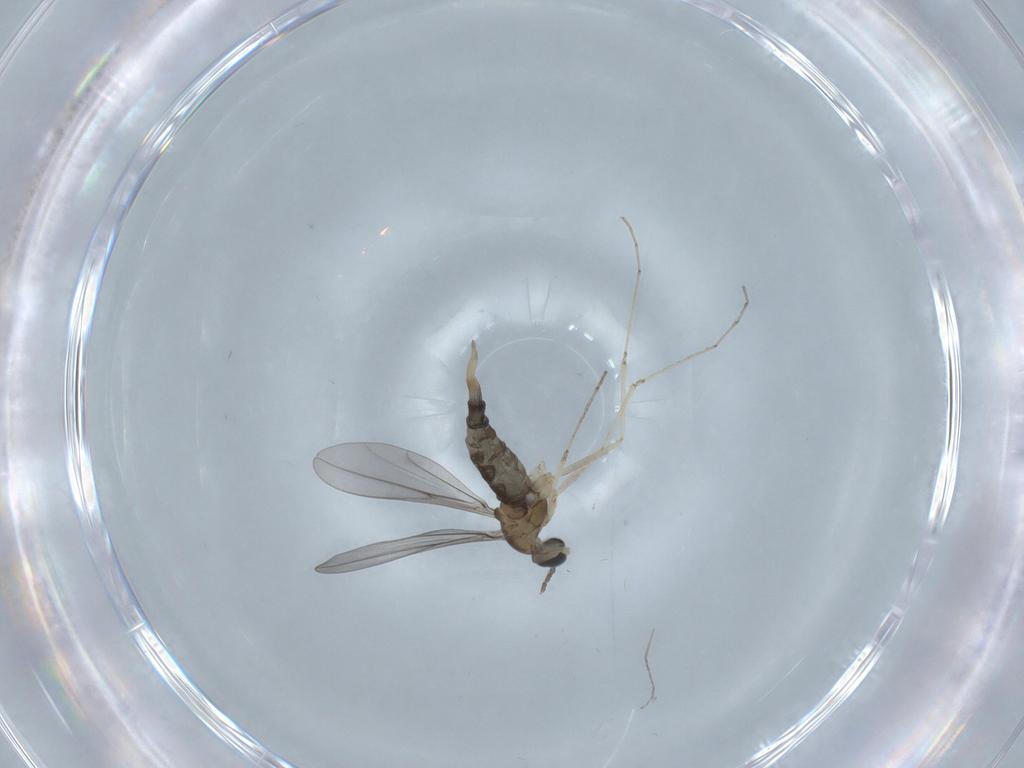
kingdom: Animalia
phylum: Arthropoda
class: Insecta
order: Diptera
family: Cecidomyiidae
